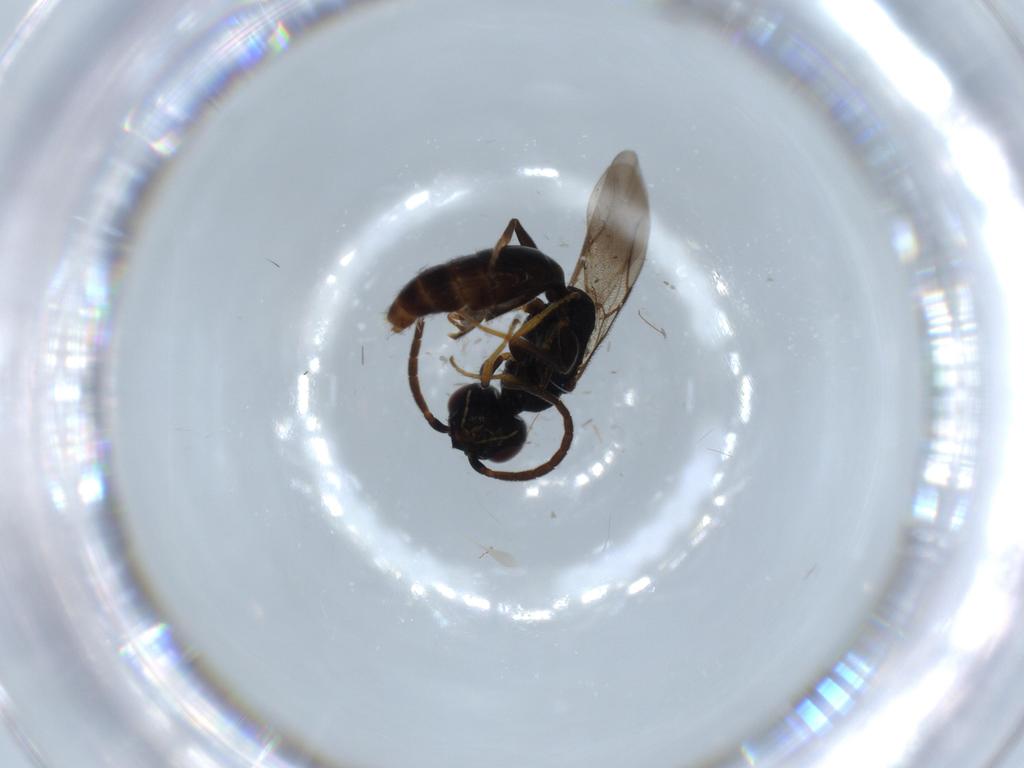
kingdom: Animalia
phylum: Arthropoda
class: Insecta
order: Hymenoptera
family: Bethylidae
